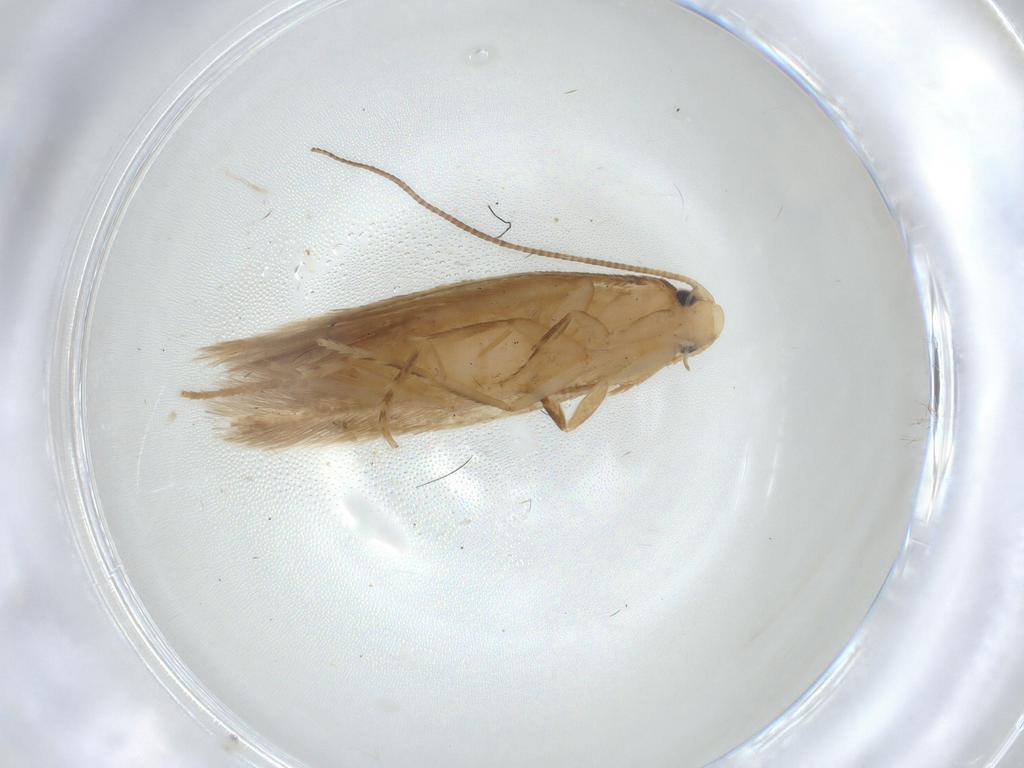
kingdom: Animalia
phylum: Arthropoda
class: Insecta
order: Lepidoptera
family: Tineidae
